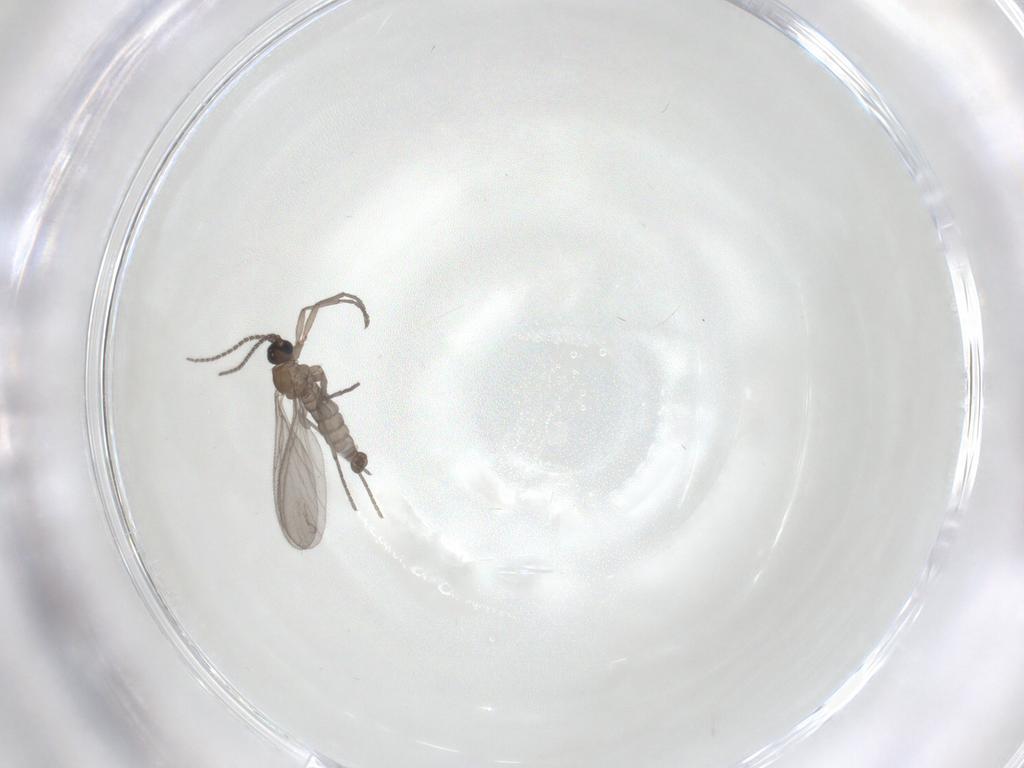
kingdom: Animalia
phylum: Arthropoda
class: Insecta
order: Diptera
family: Sciaridae
